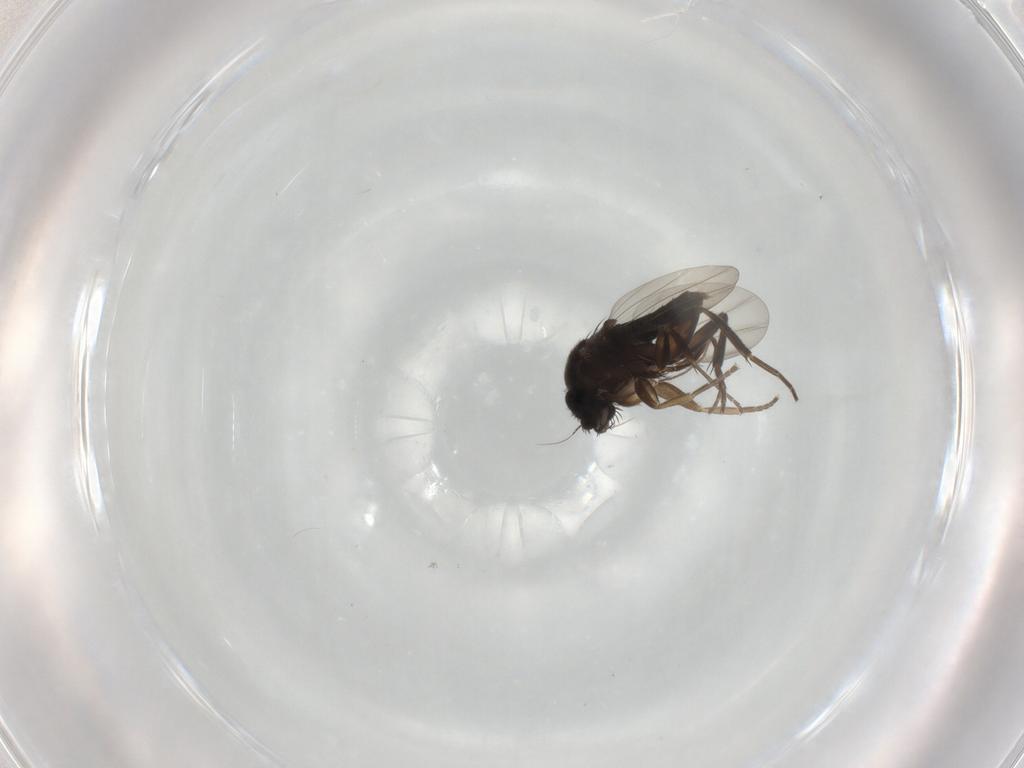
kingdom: Animalia
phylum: Arthropoda
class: Insecta
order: Diptera
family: Phoridae
